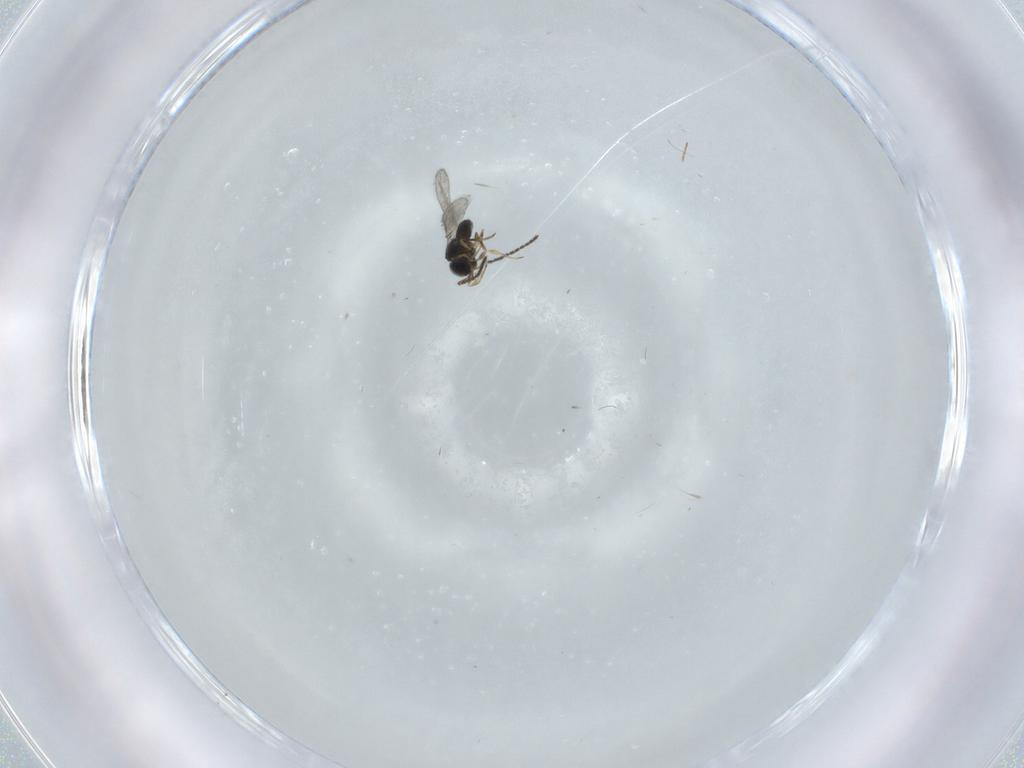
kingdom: Animalia
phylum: Arthropoda
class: Insecta
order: Hymenoptera
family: Scelionidae
